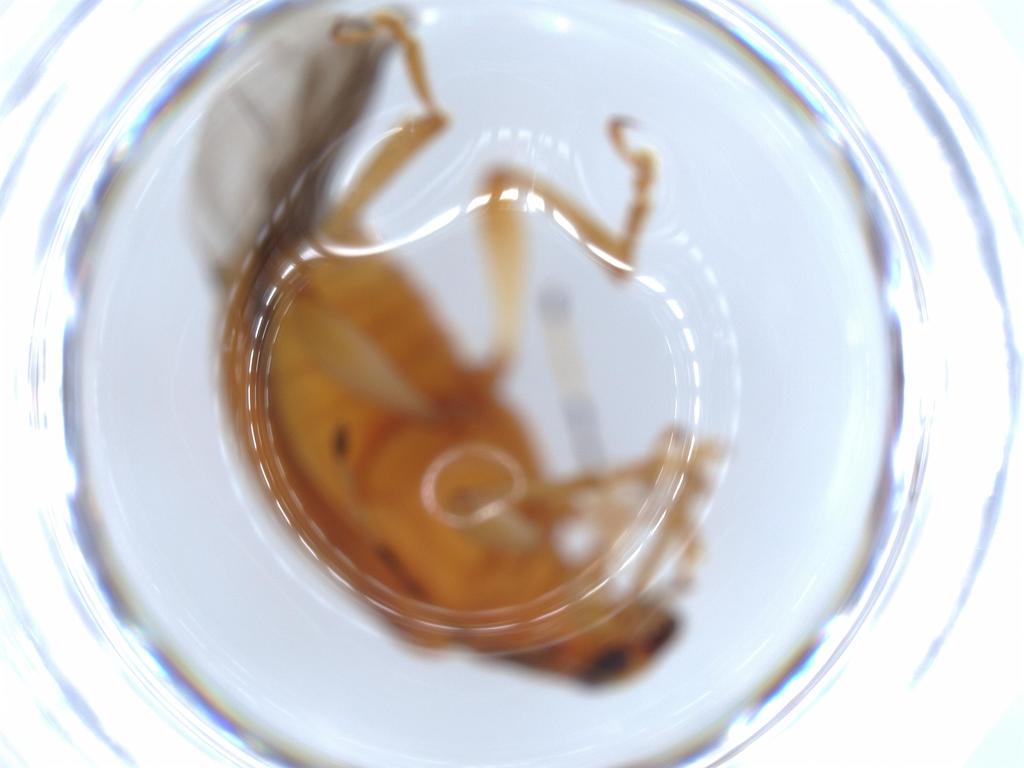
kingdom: Animalia
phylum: Arthropoda
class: Insecta
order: Coleoptera
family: Chrysomelidae
